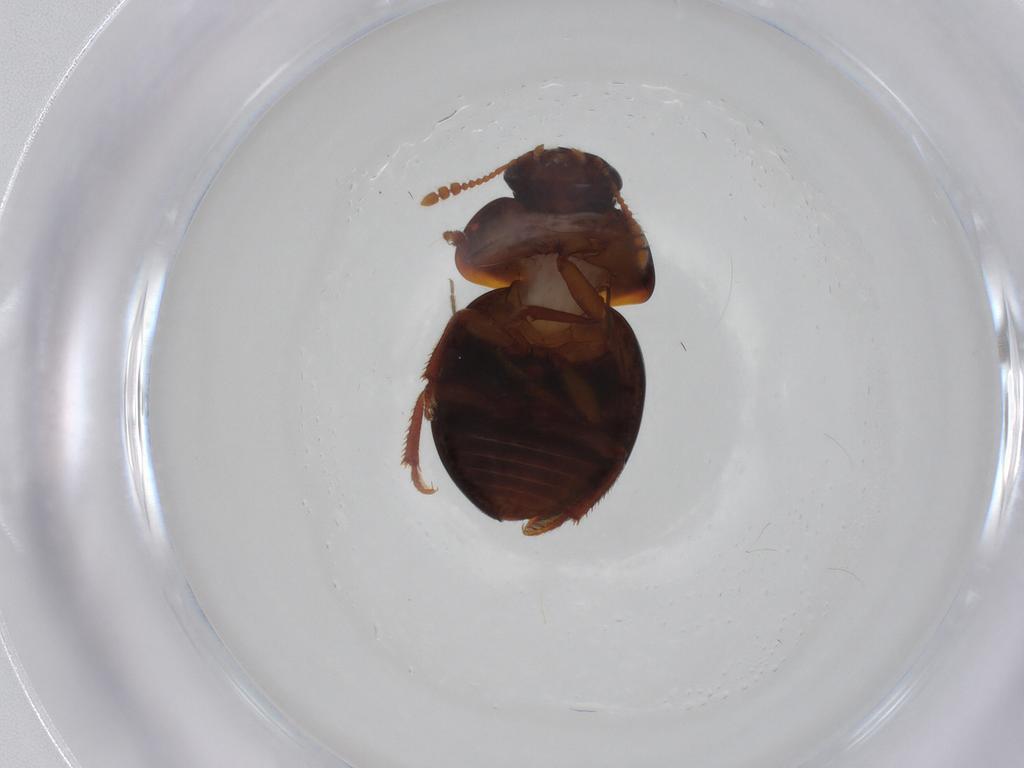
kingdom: Animalia
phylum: Arthropoda
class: Insecta
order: Coleoptera
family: Leiodidae
